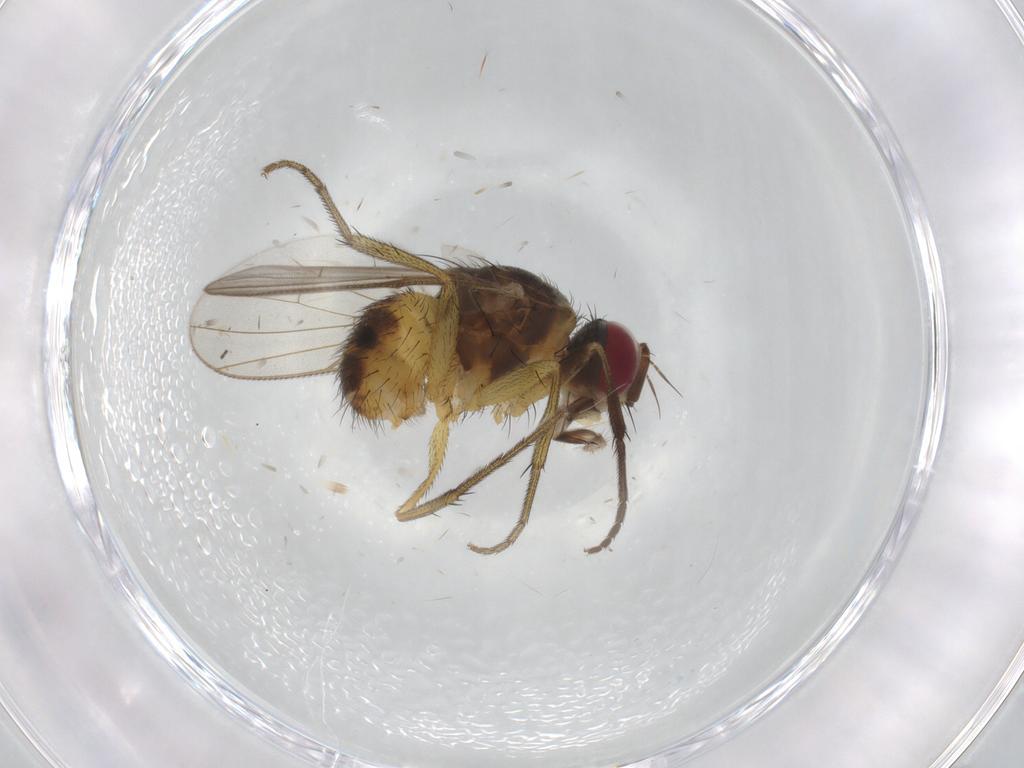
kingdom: Animalia
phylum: Arthropoda
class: Insecta
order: Diptera
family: Muscidae
